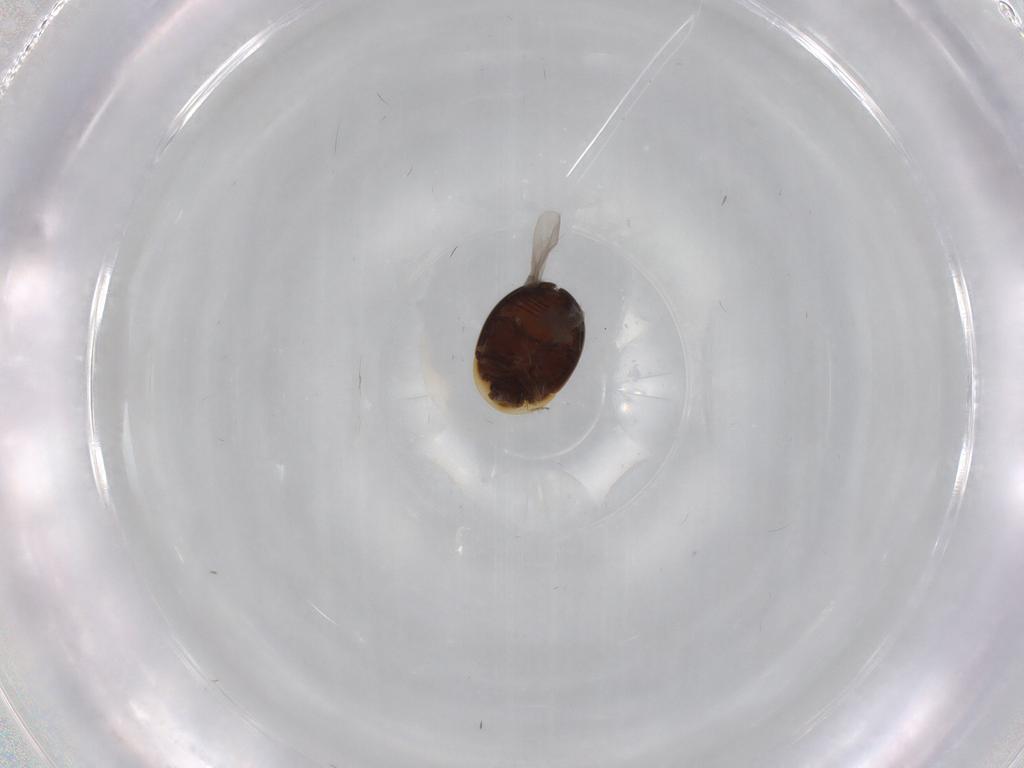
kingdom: Animalia
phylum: Arthropoda
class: Insecta
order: Coleoptera
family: Corylophidae
